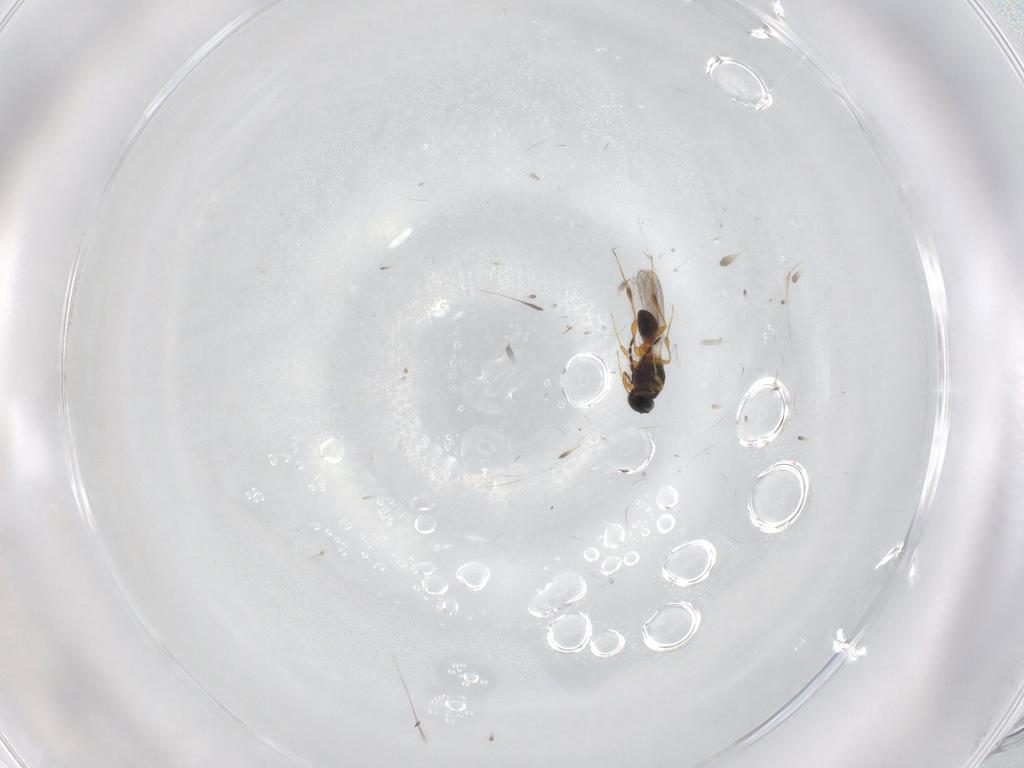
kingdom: Animalia
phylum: Arthropoda
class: Insecta
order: Hymenoptera
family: Platygastridae
